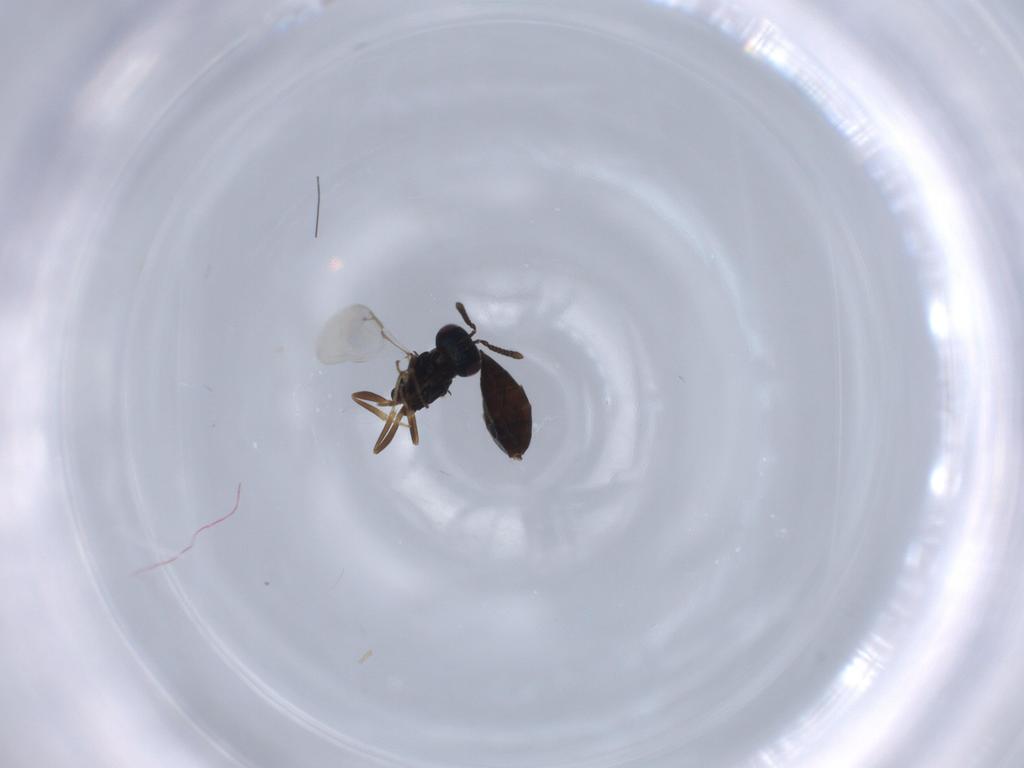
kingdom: Animalia
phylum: Arthropoda
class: Insecta
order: Hymenoptera
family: Pteromalidae
